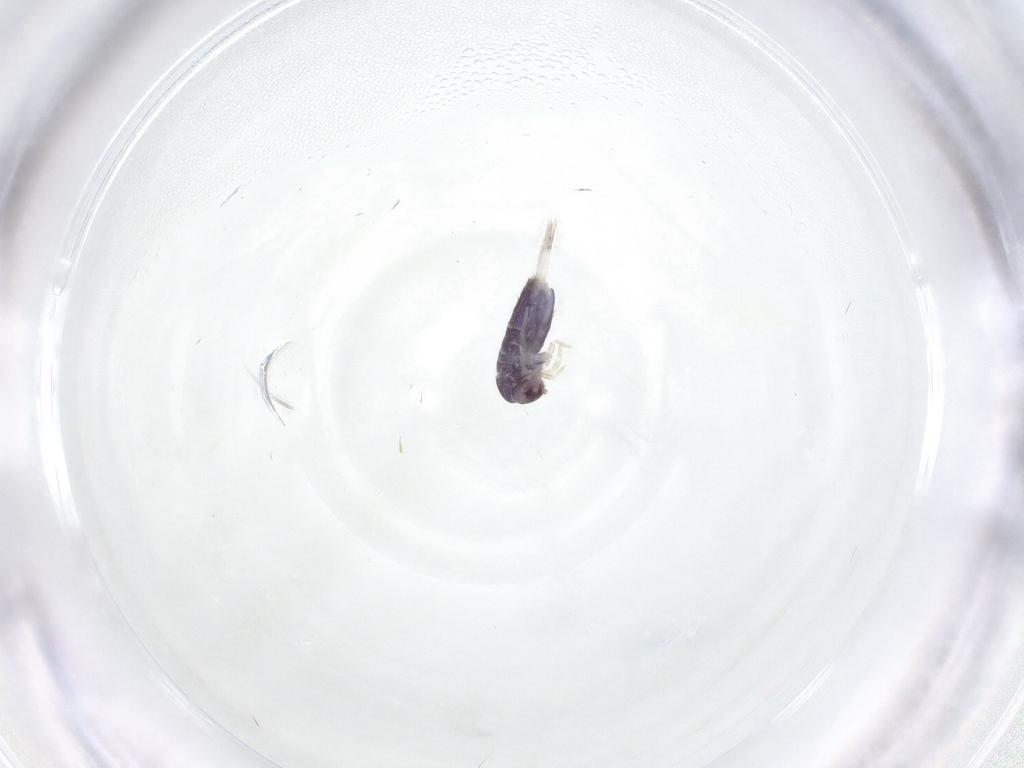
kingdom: Animalia
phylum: Arthropoda
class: Collembola
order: Entomobryomorpha
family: Entomobryidae
